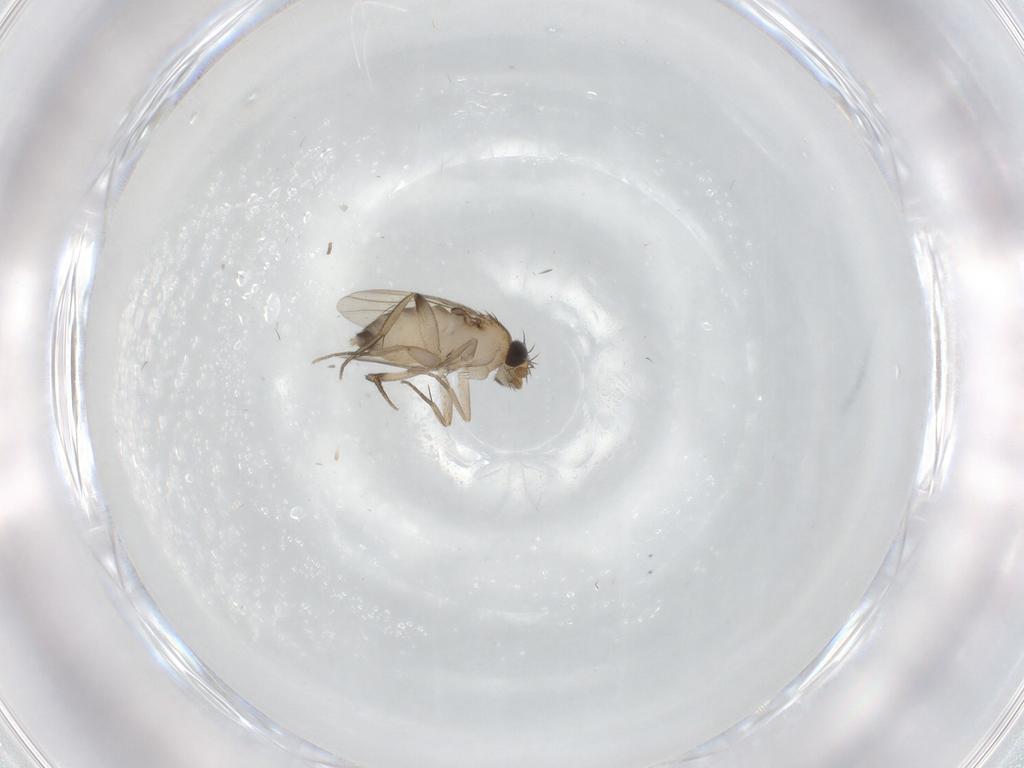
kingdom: Animalia
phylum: Arthropoda
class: Insecta
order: Diptera
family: Phoridae
